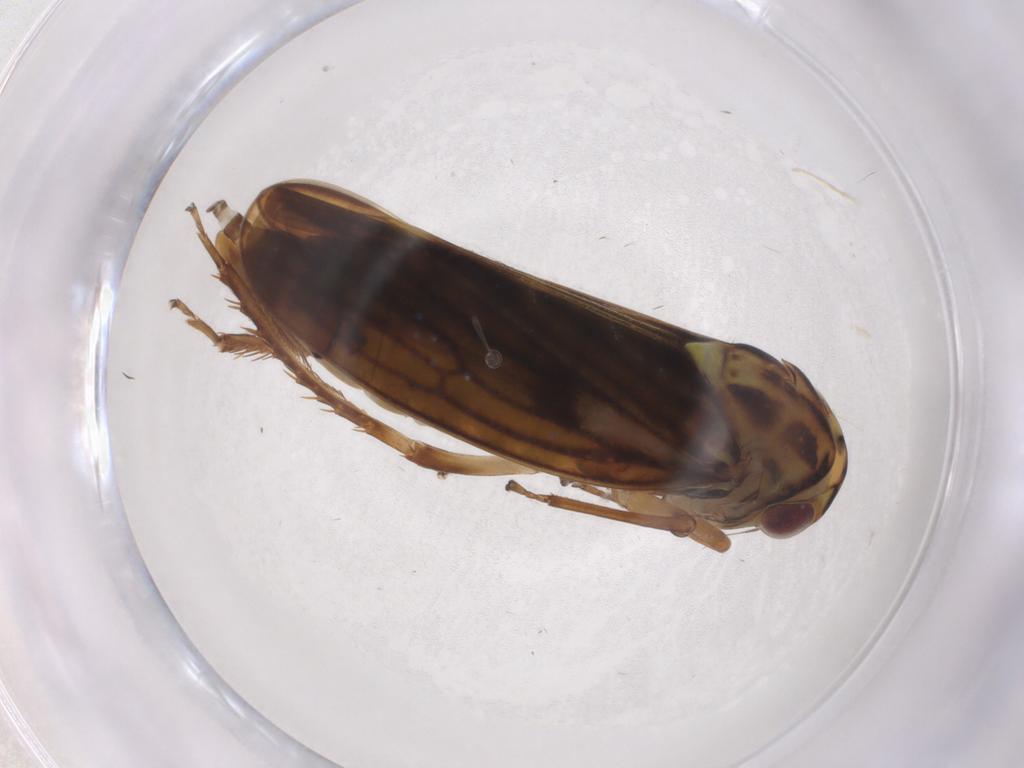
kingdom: Animalia
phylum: Arthropoda
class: Insecta
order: Hemiptera
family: Cicadellidae
